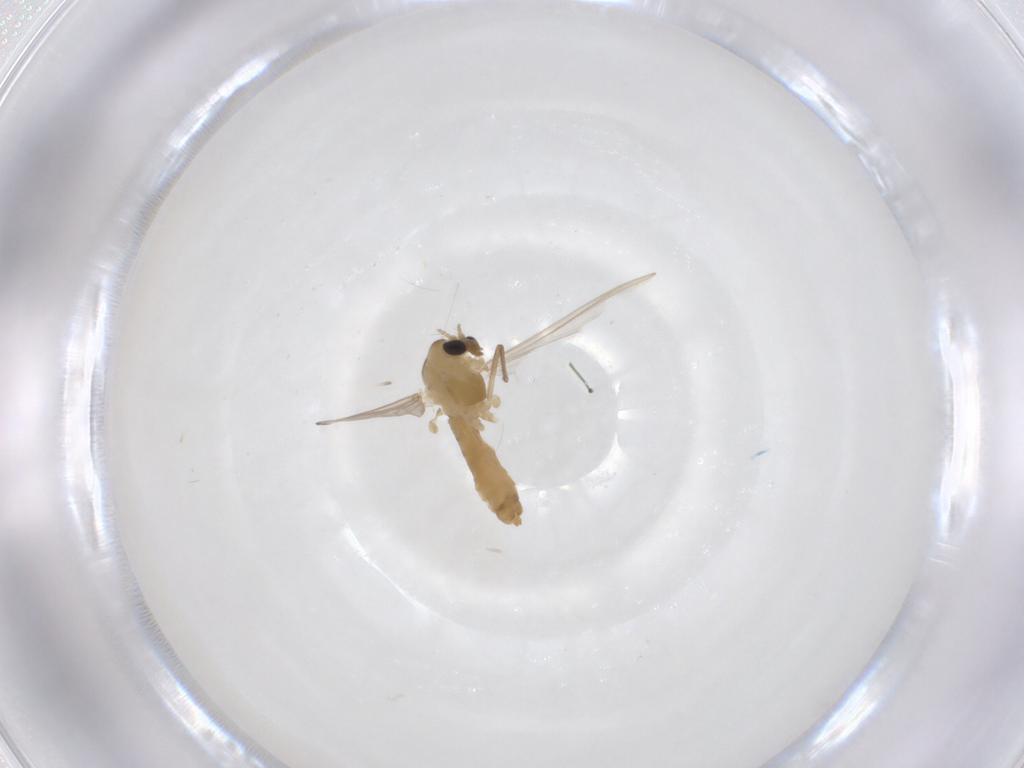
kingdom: Animalia
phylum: Arthropoda
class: Insecta
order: Diptera
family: Chironomidae
